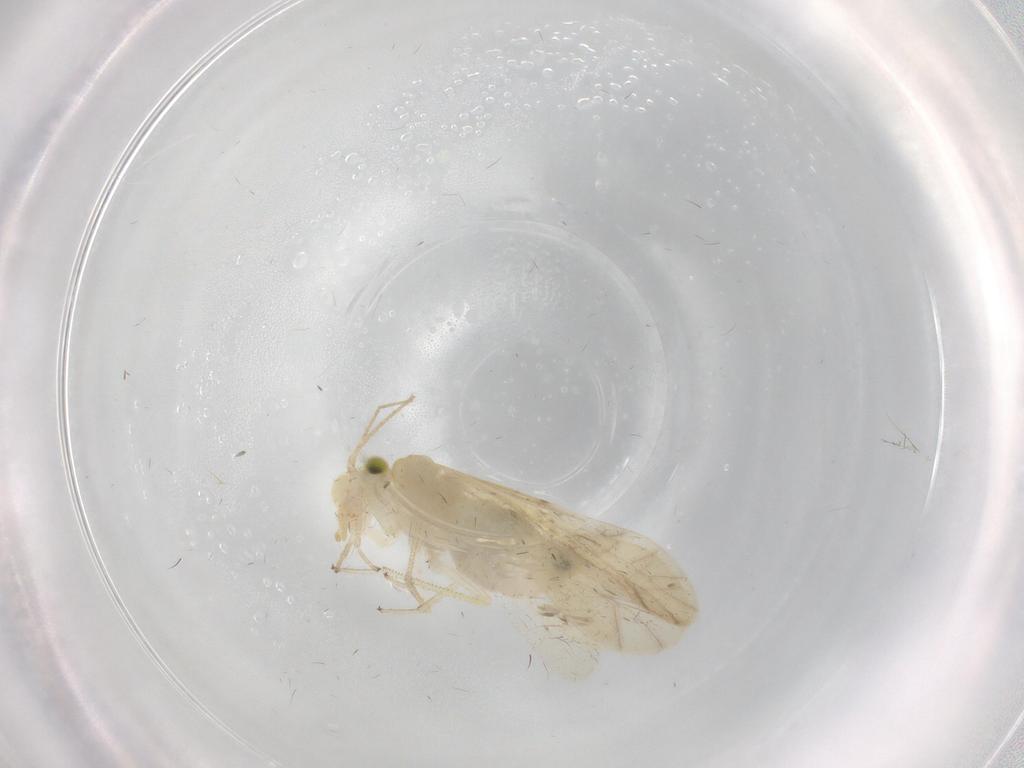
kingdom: Animalia
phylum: Arthropoda
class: Insecta
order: Psocodea
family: Caeciliusidae
